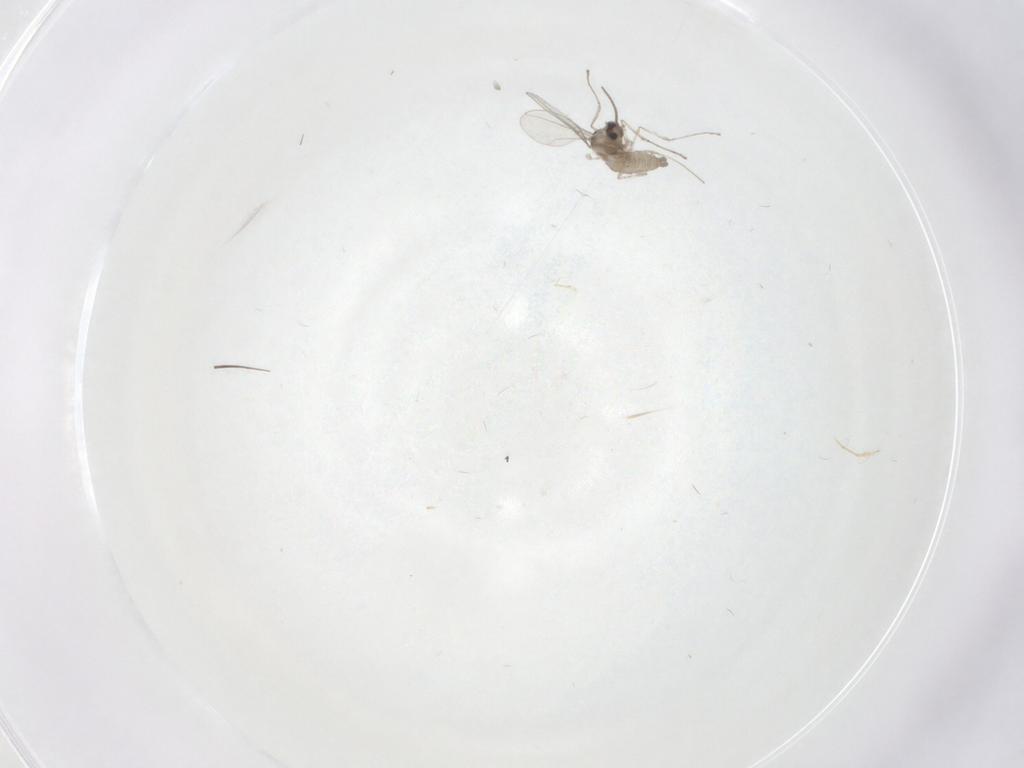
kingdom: Animalia
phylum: Arthropoda
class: Insecta
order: Diptera
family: Cecidomyiidae
